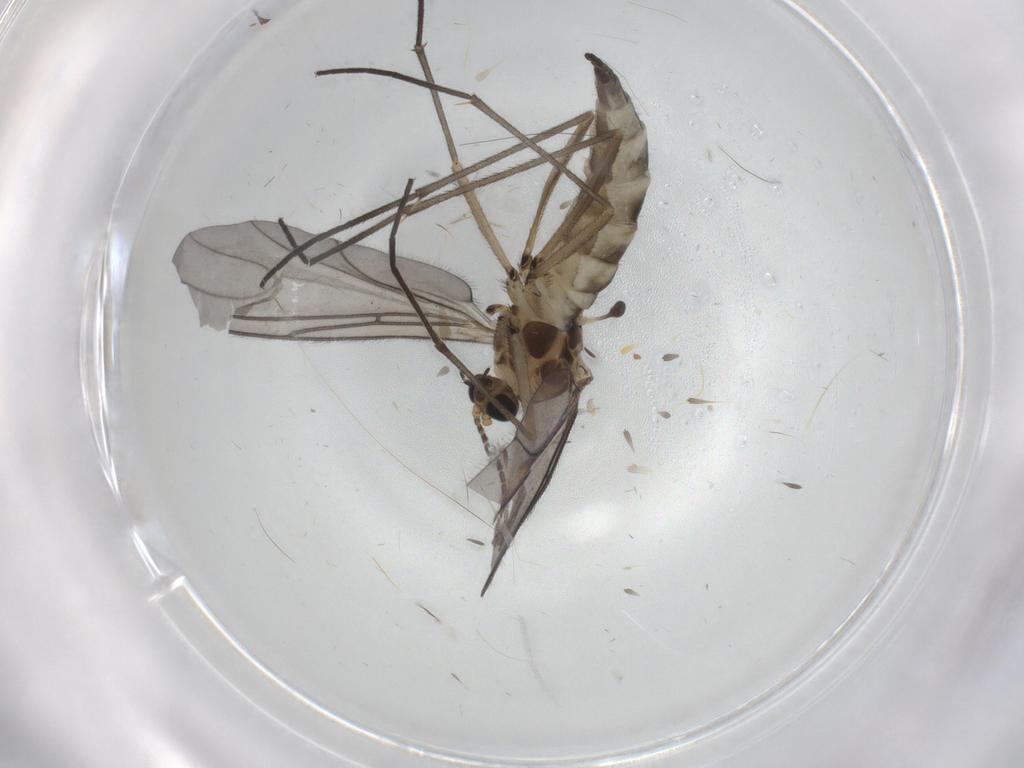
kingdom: Animalia
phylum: Arthropoda
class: Insecta
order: Diptera
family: Sciaridae
